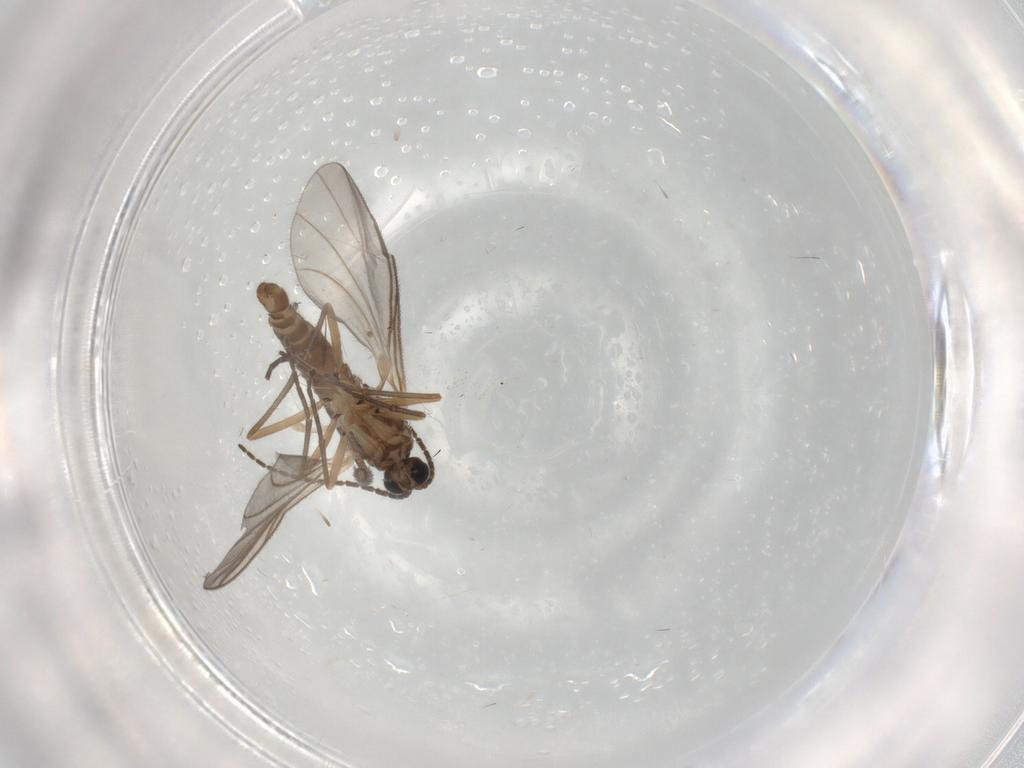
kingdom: Animalia
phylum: Arthropoda
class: Insecta
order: Diptera
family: Sciaridae
